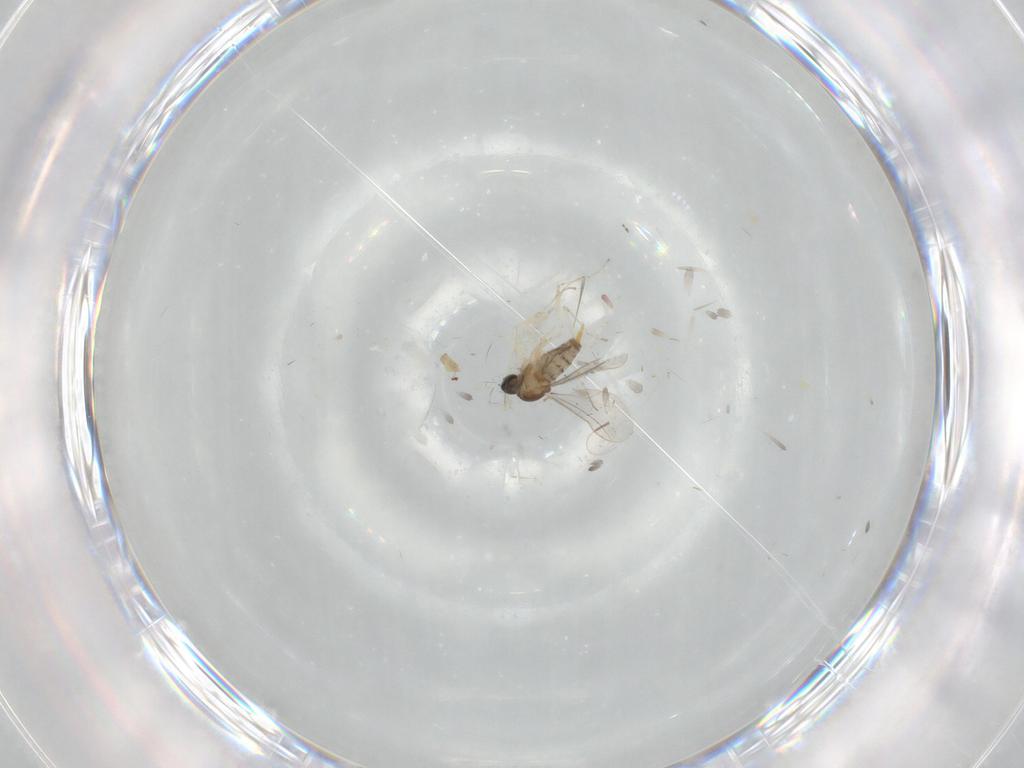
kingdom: Animalia
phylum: Arthropoda
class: Insecta
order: Diptera
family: Cecidomyiidae
